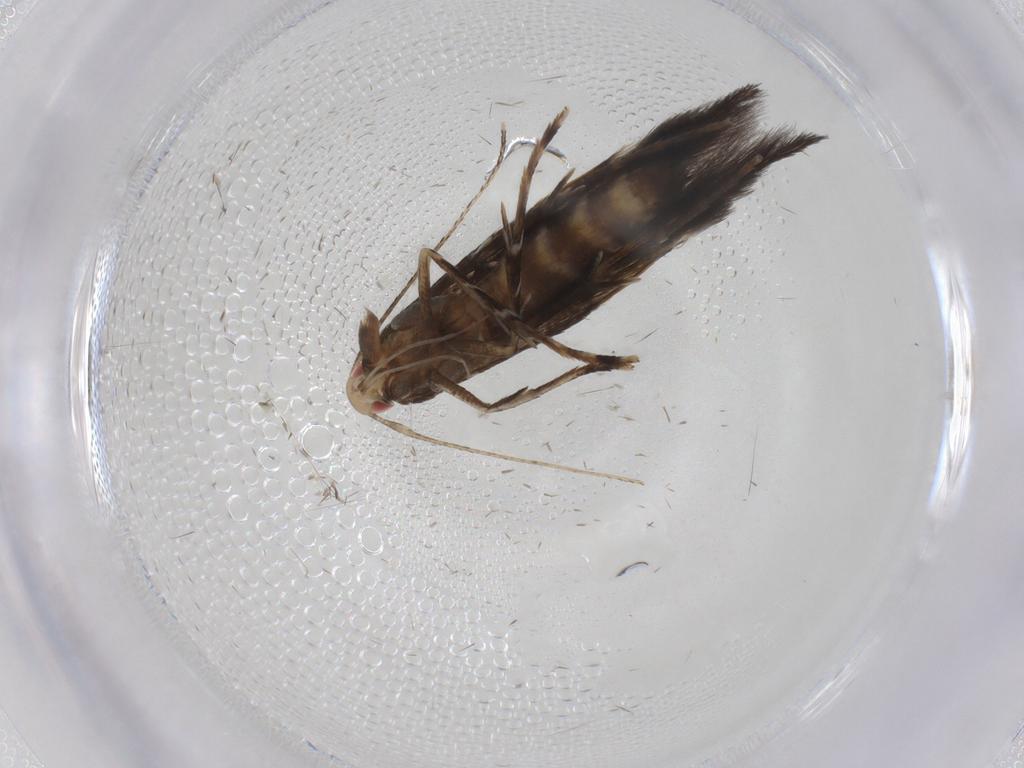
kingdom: Animalia
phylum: Arthropoda
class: Insecta
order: Lepidoptera
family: Cosmopterigidae
